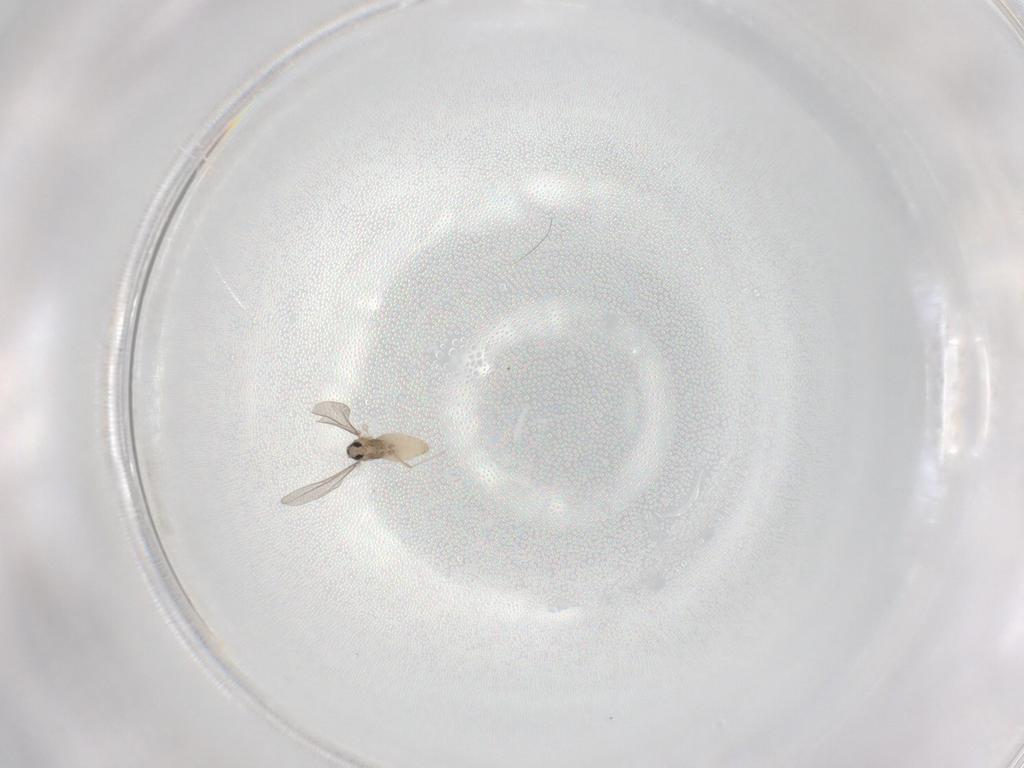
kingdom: Animalia
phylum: Arthropoda
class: Insecta
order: Diptera
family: Cecidomyiidae
